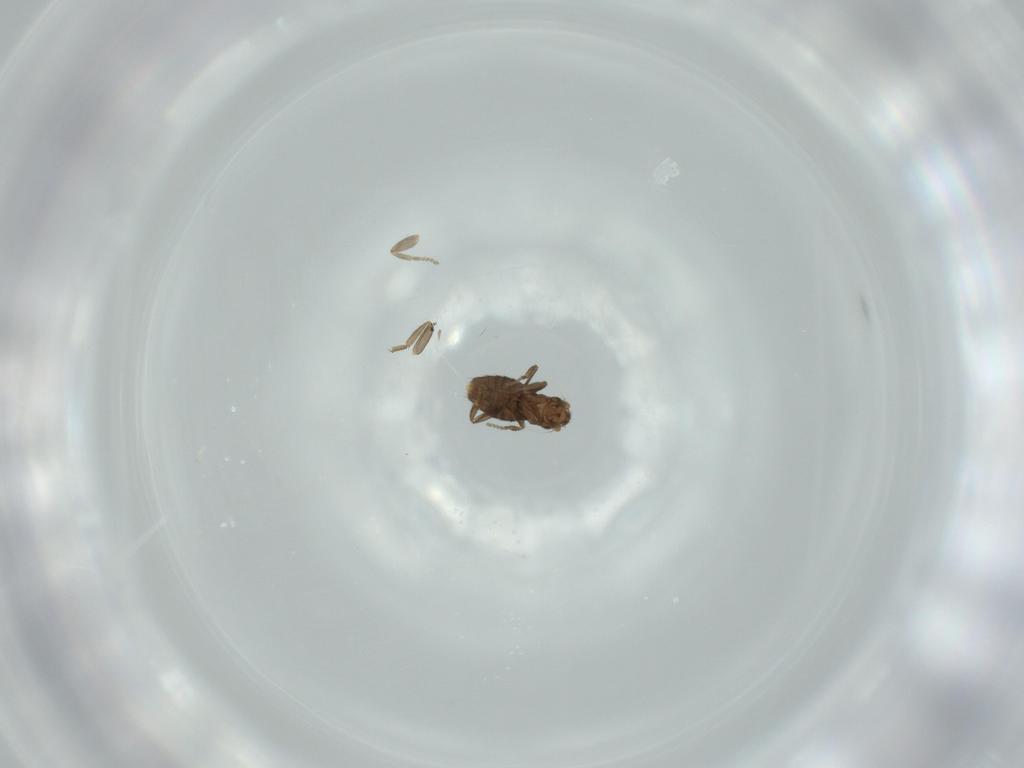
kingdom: Animalia
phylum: Arthropoda
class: Insecta
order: Diptera
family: Phoridae
